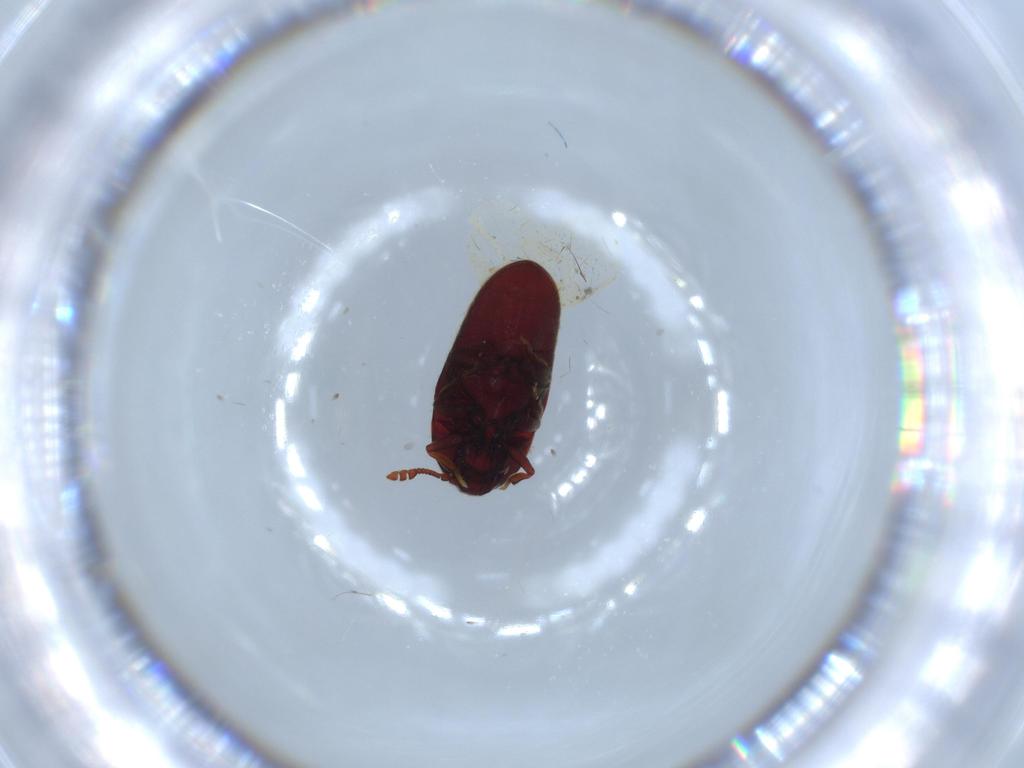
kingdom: Animalia
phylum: Arthropoda
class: Insecta
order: Coleoptera
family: Throscidae
